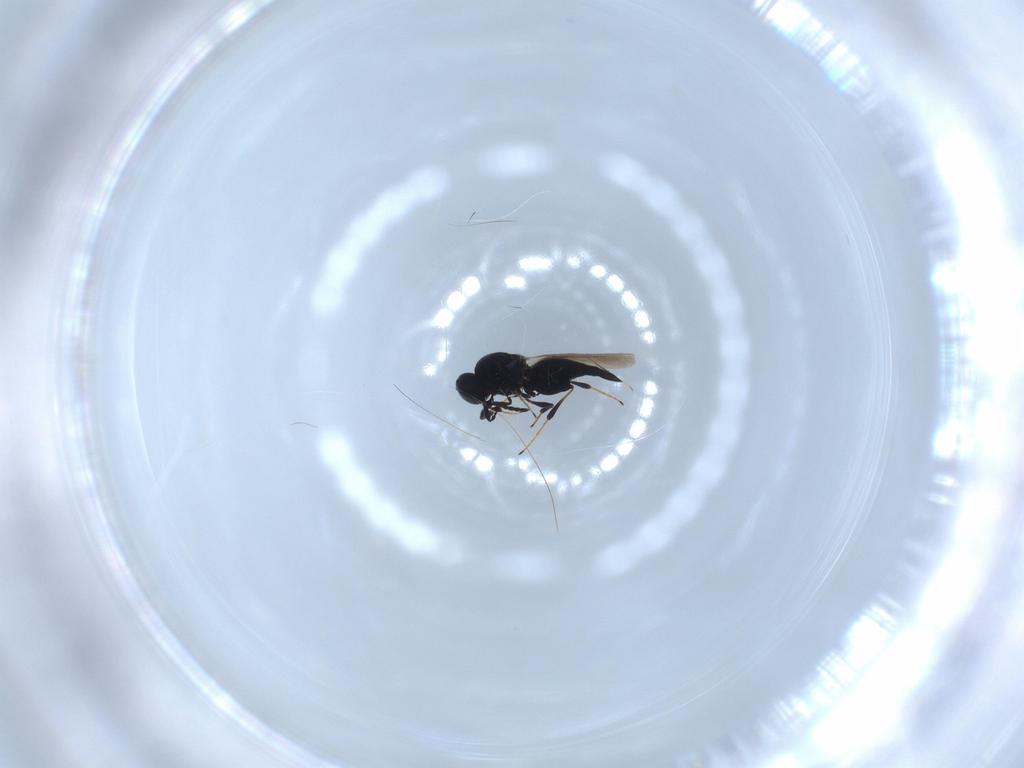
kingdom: Animalia
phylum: Arthropoda
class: Insecta
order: Hymenoptera
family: Platygastridae
